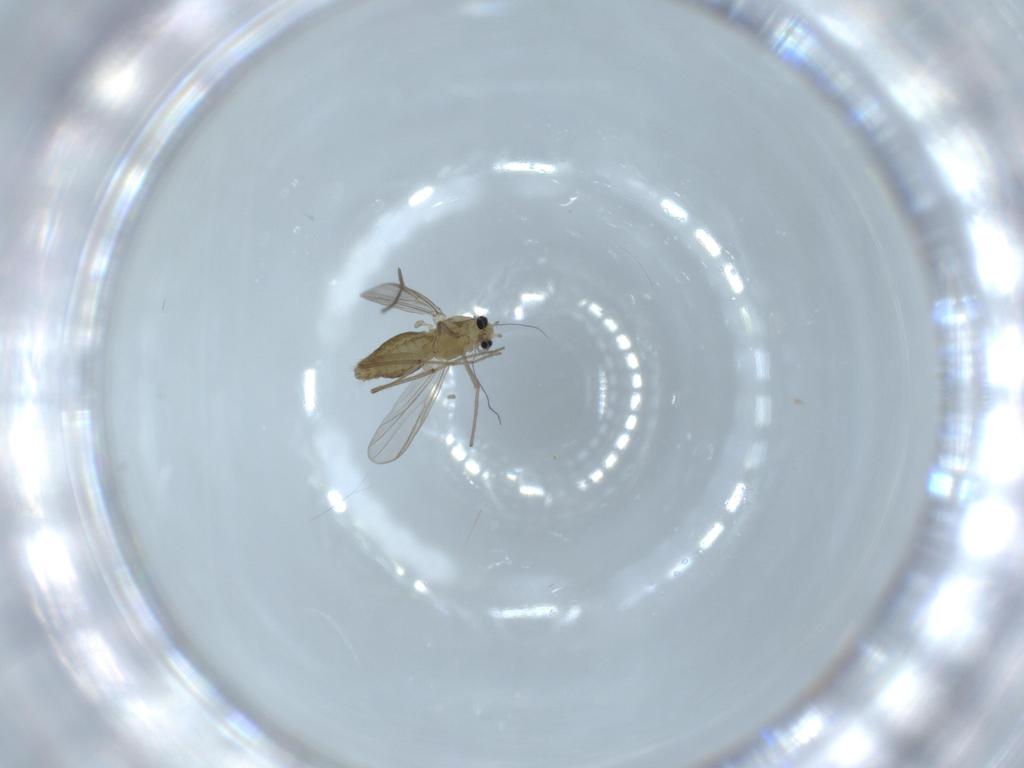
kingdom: Animalia
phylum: Arthropoda
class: Insecta
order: Diptera
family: Chironomidae
